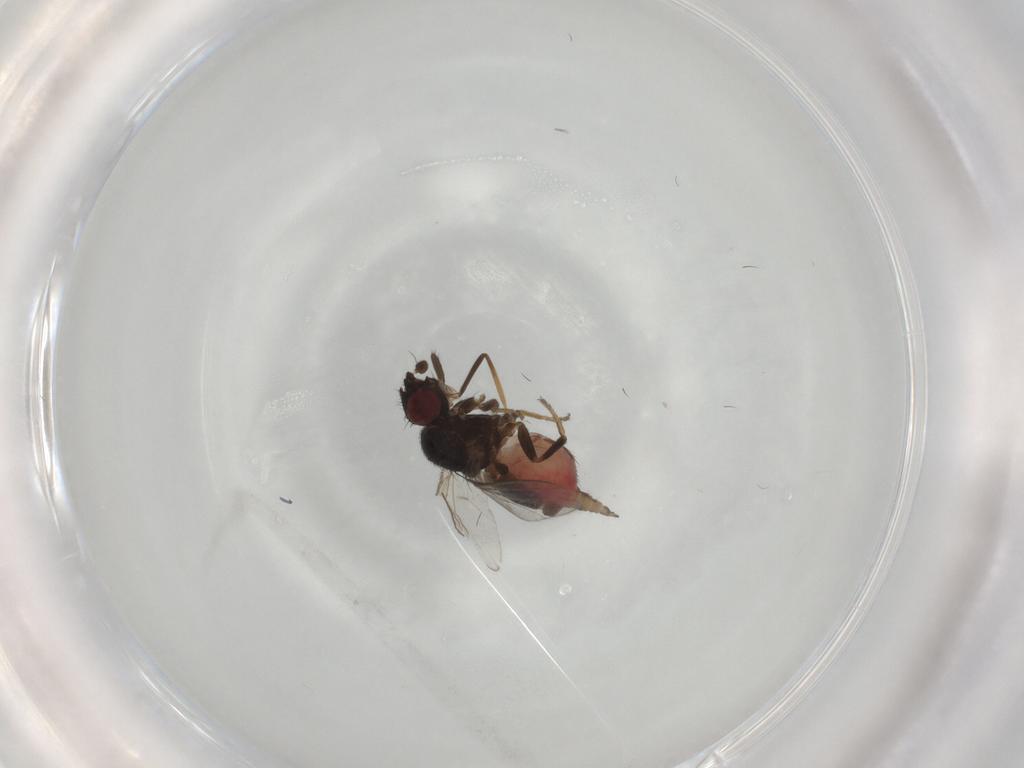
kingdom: Animalia
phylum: Arthropoda
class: Insecta
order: Diptera
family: Milichiidae
